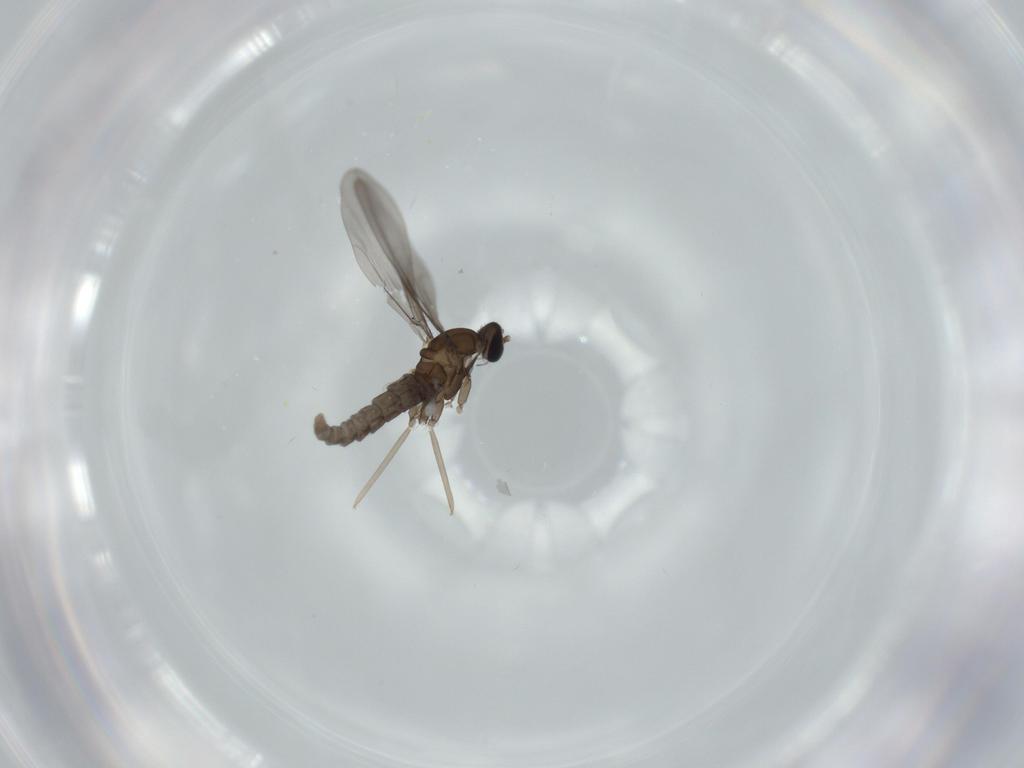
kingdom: Animalia
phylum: Arthropoda
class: Insecta
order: Diptera
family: Cecidomyiidae
